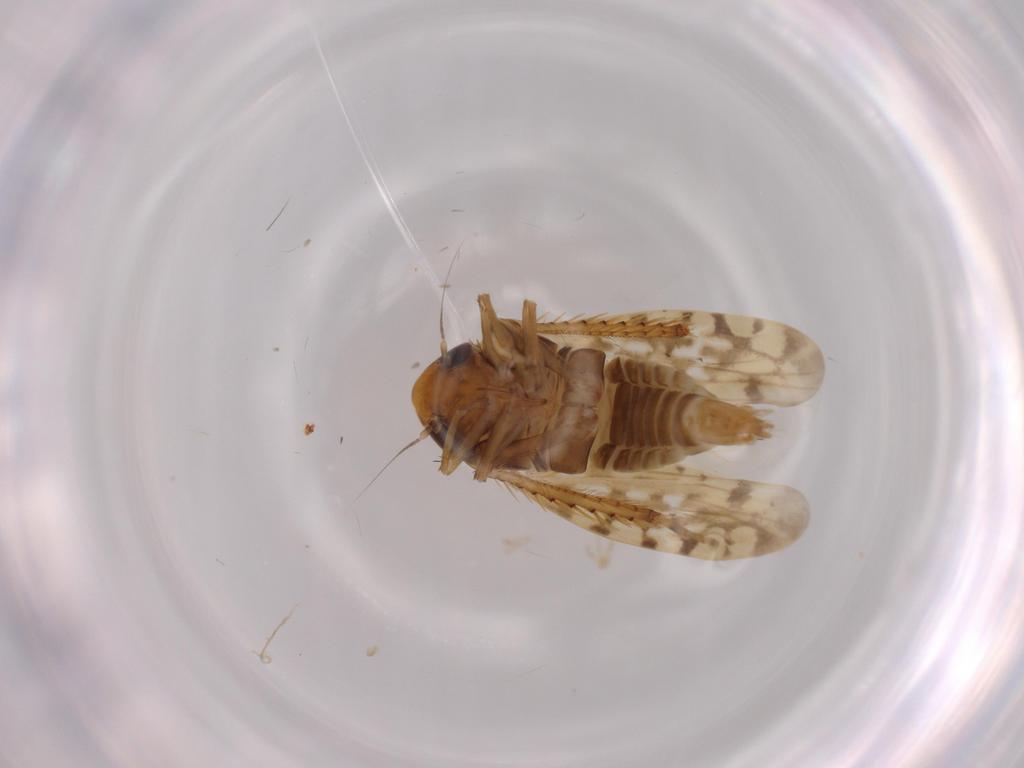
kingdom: Animalia
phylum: Arthropoda
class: Insecta
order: Hemiptera
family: Cicadellidae
